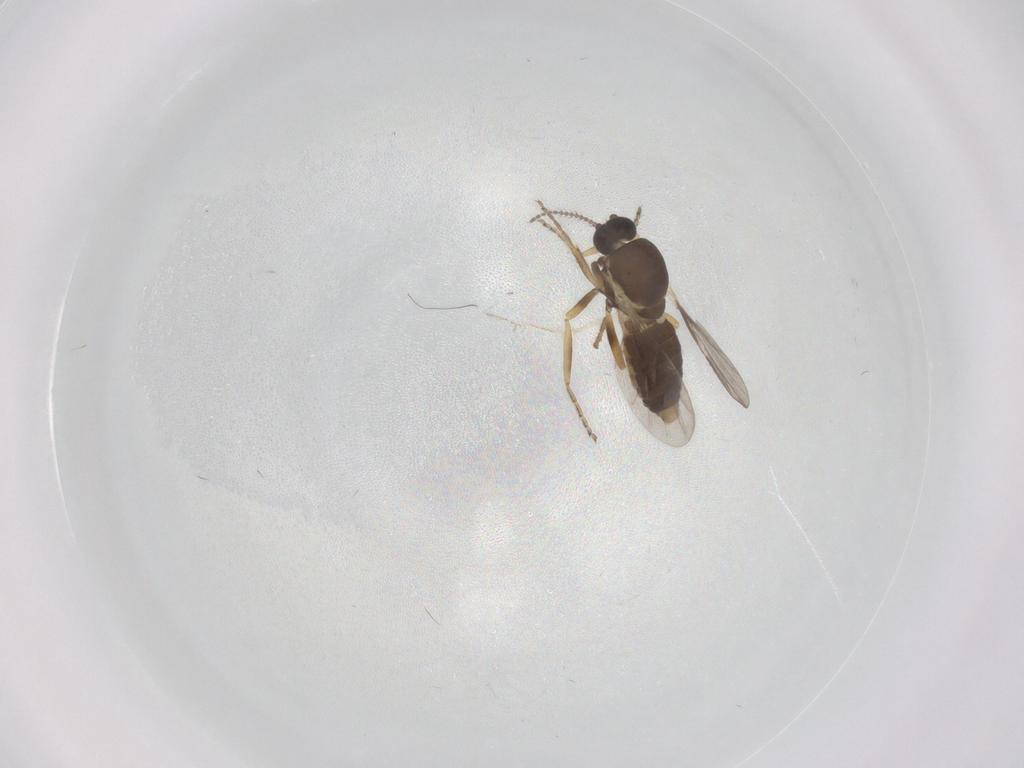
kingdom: Animalia
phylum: Arthropoda
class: Insecta
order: Diptera
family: Ceratopogonidae
